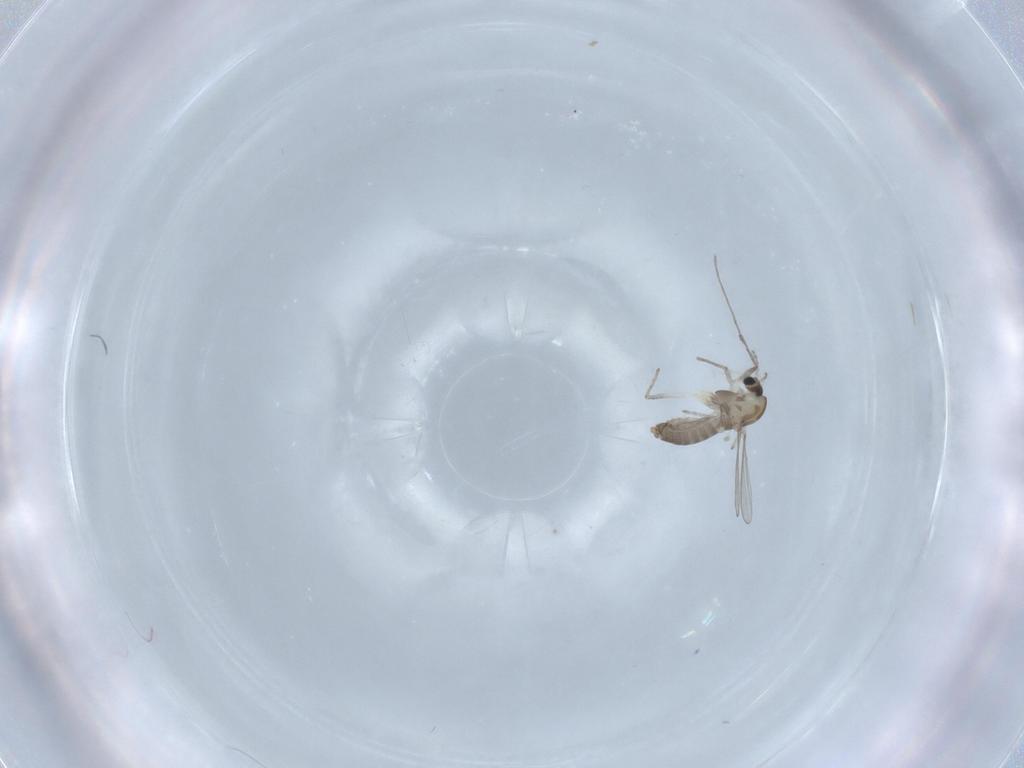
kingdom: Animalia
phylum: Arthropoda
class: Insecta
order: Diptera
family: Chironomidae
